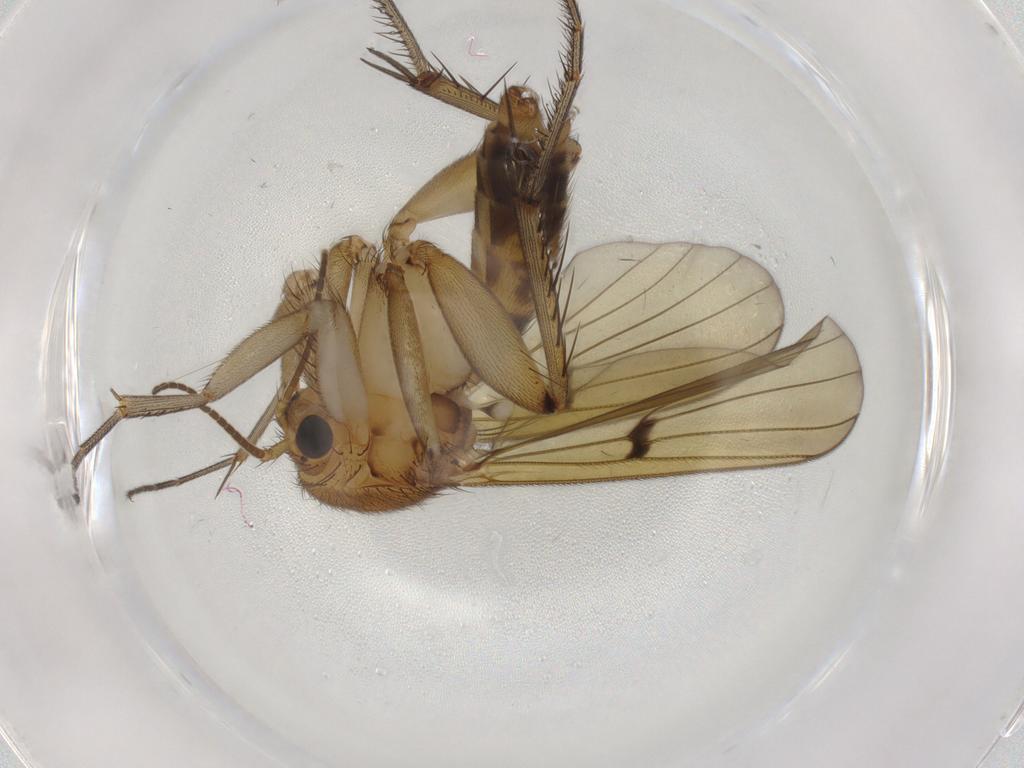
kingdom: Animalia
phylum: Arthropoda
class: Insecta
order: Diptera
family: Mycetophilidae
